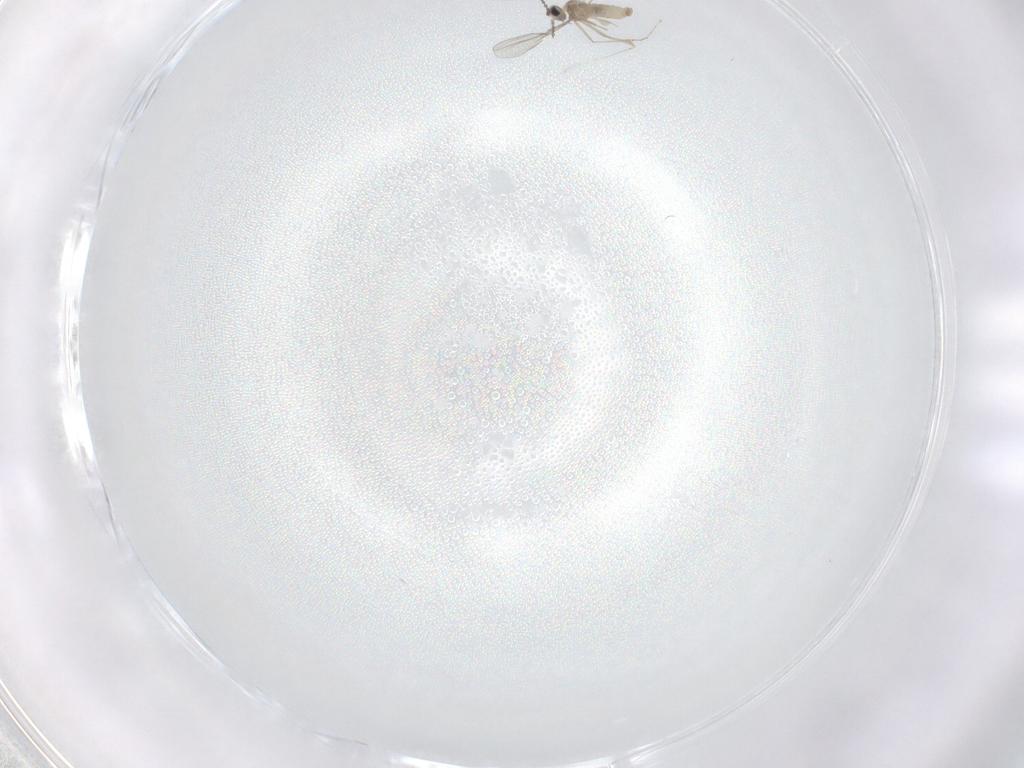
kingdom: Animalia
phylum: Arthropoda
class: Insecta
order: Diptera
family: Cecidomyiidae
